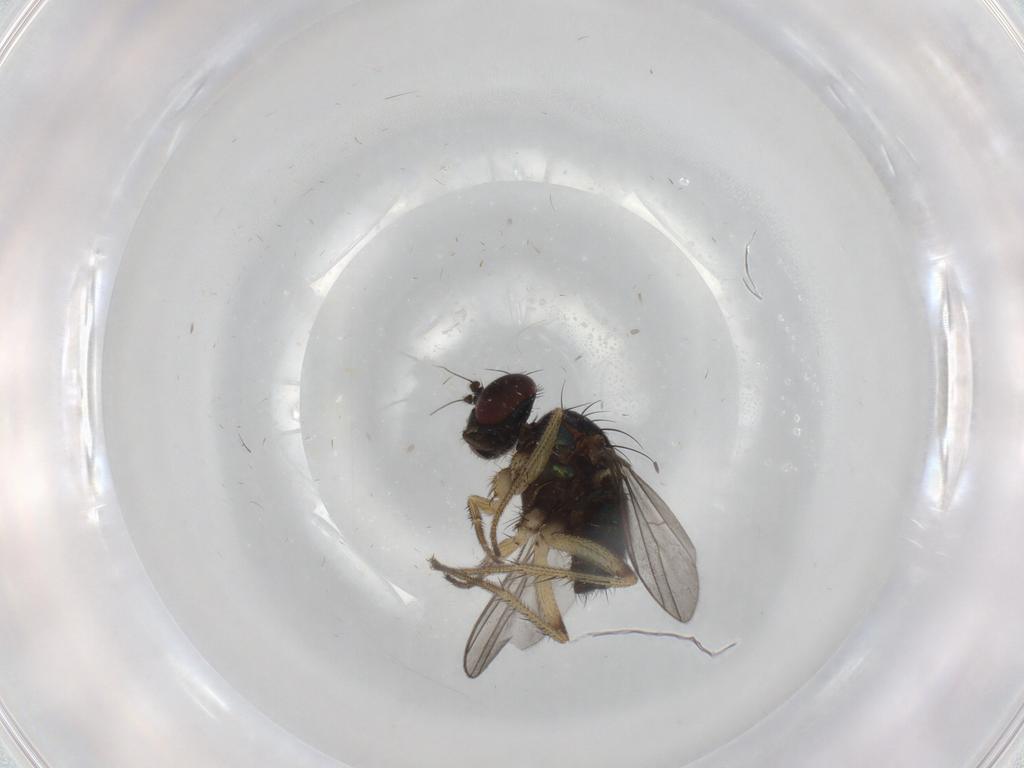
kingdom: Animalia
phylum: Arthropoda
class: Insecta
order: Diptera
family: Dolichopodidae
